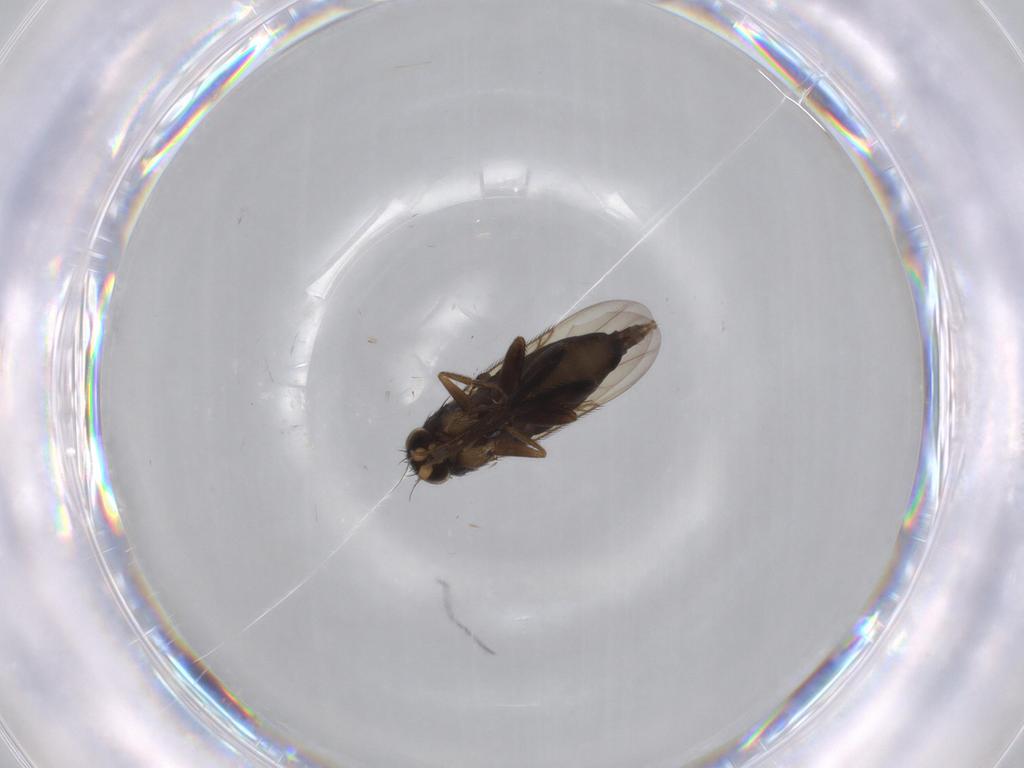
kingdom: Animalia
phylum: Arthropoda
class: Insecta
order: Diptera
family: Phoridae
